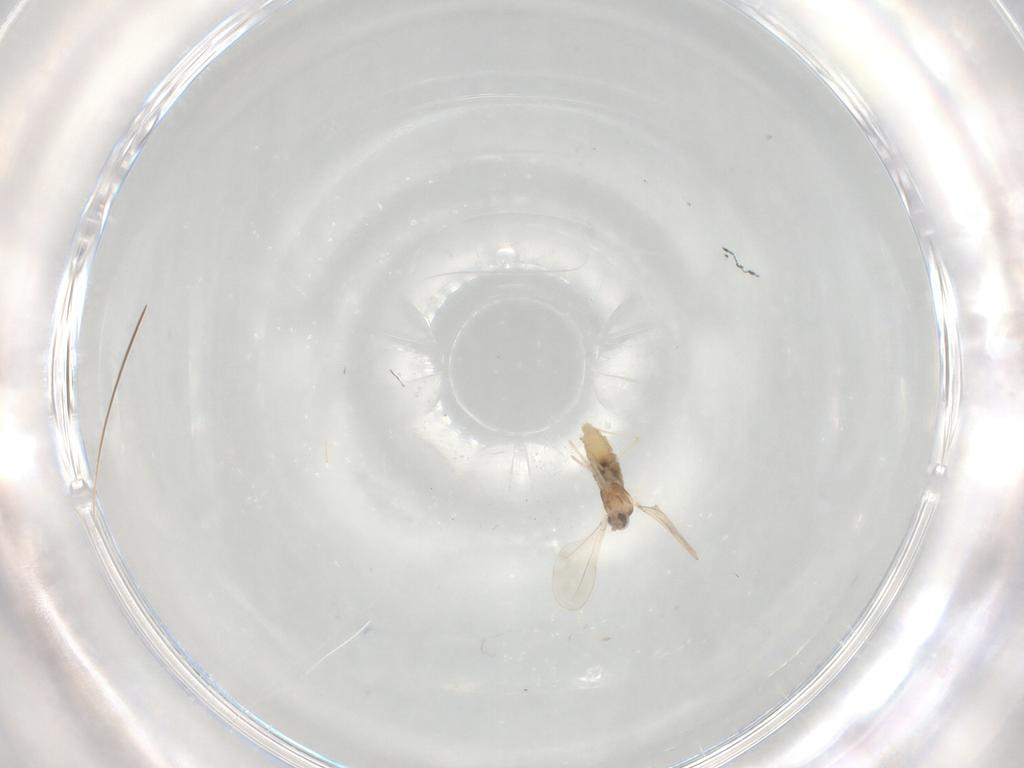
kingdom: Animalia
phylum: Arthropoda
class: Insecta
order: Diptera
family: Cecidomyiidae
